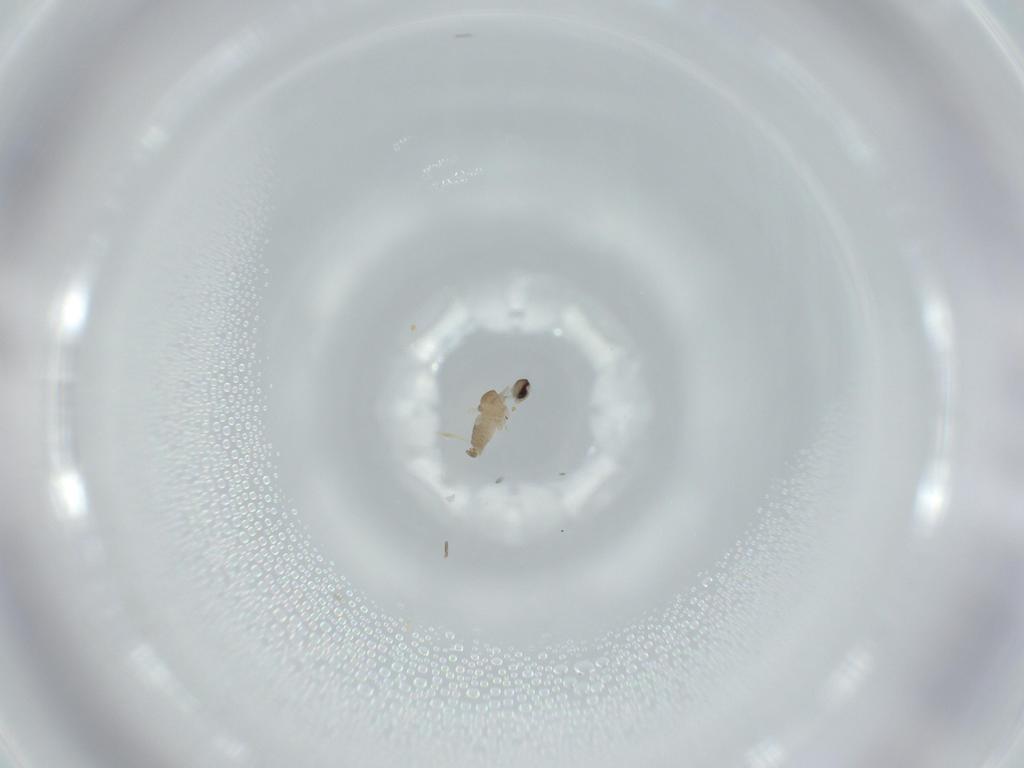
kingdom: Animalia
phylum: Arthropoda
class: Insecta
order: Diptera
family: Cecidomyiidae
